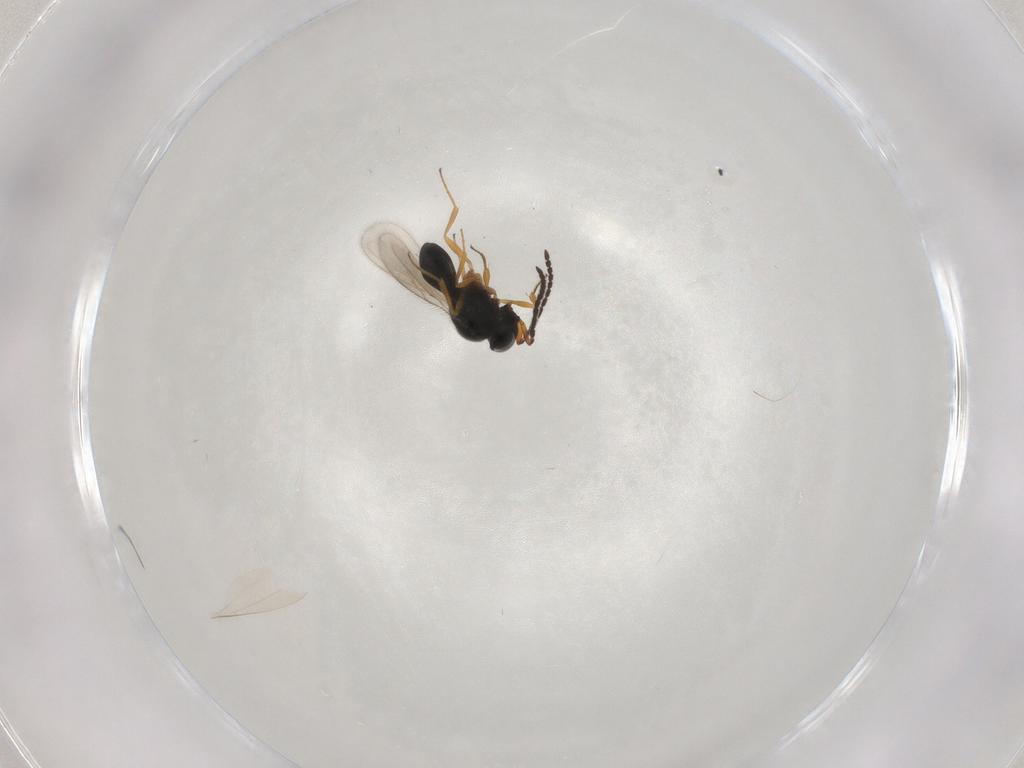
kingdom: Animalia
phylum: Arthropoda
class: Insecta
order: Hymenoptera
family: Scelionidae
